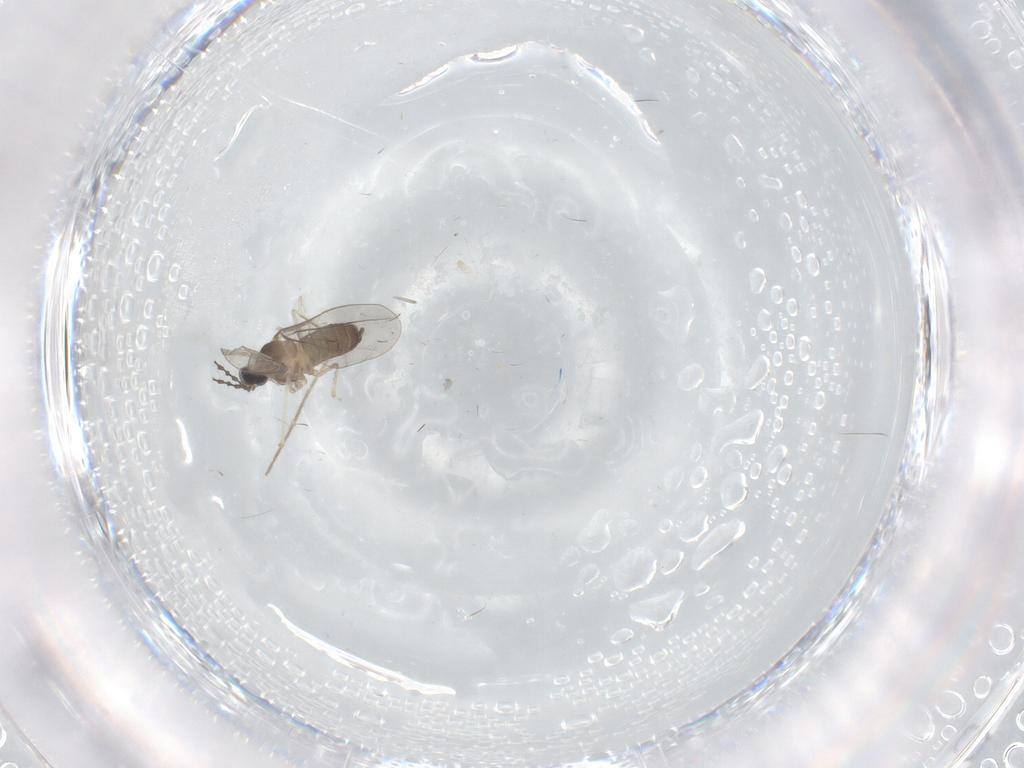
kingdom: Animalia
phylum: Arthropoda
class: Insecta
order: Diptera
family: Cecidomyiidae
